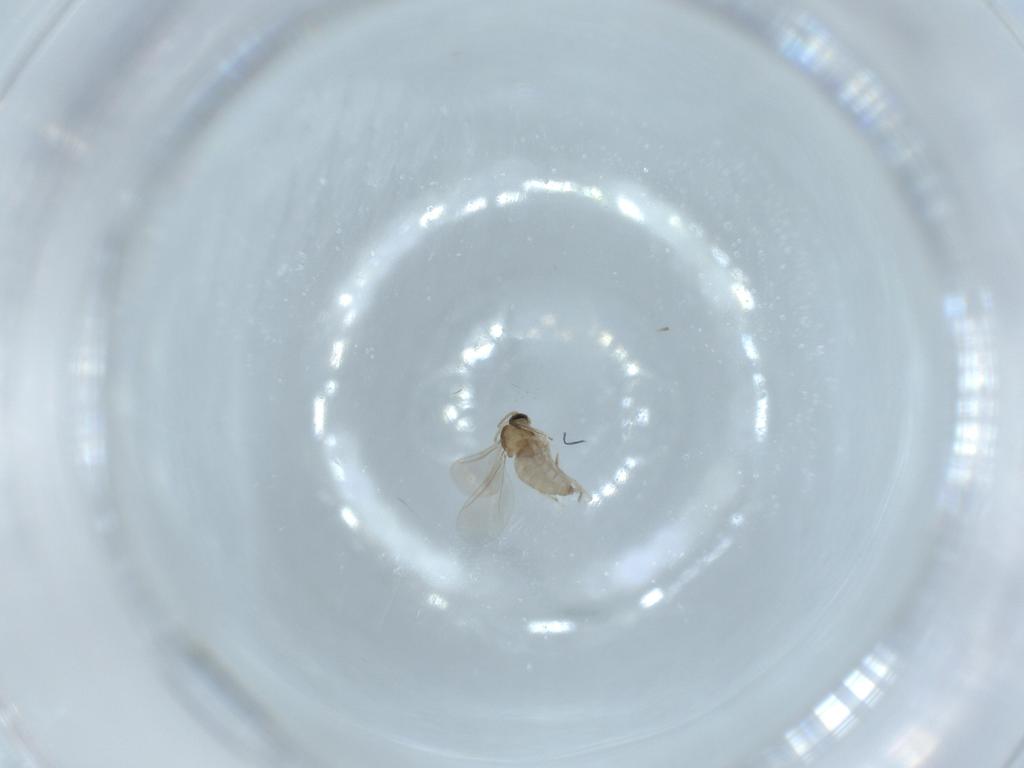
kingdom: Animalia
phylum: Arthropoda
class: Insecta
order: Diptera
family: Cecidomyiidae
